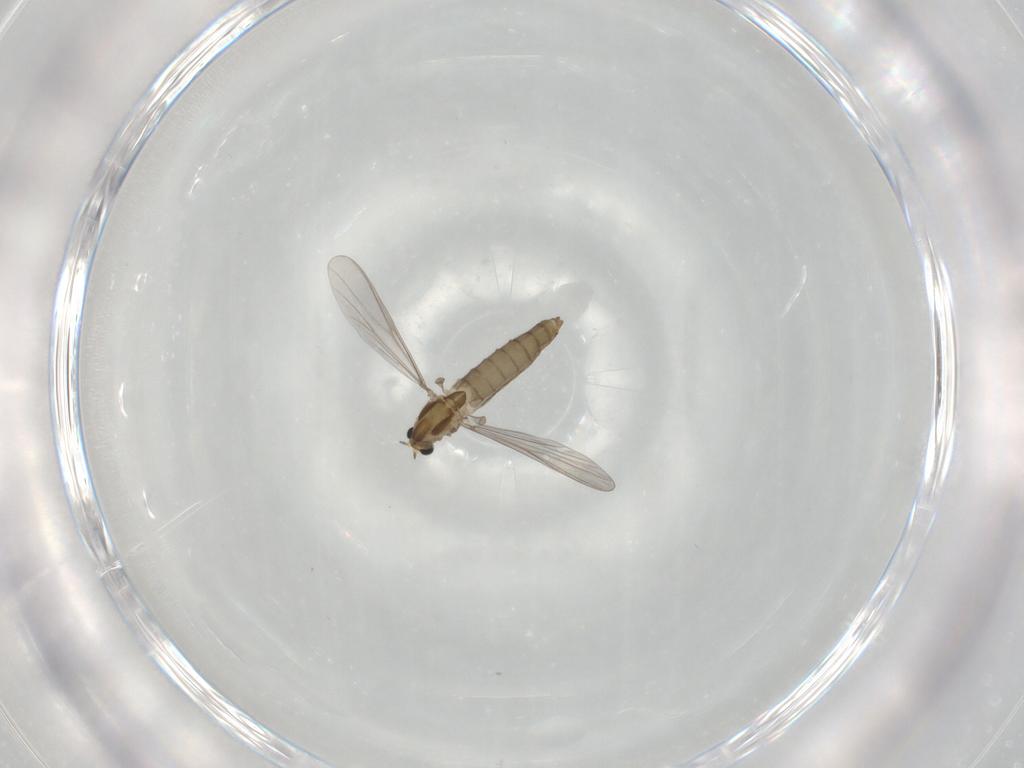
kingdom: Animalia
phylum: Arthropoda
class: Insecta
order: Diptera
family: Chironomidae
